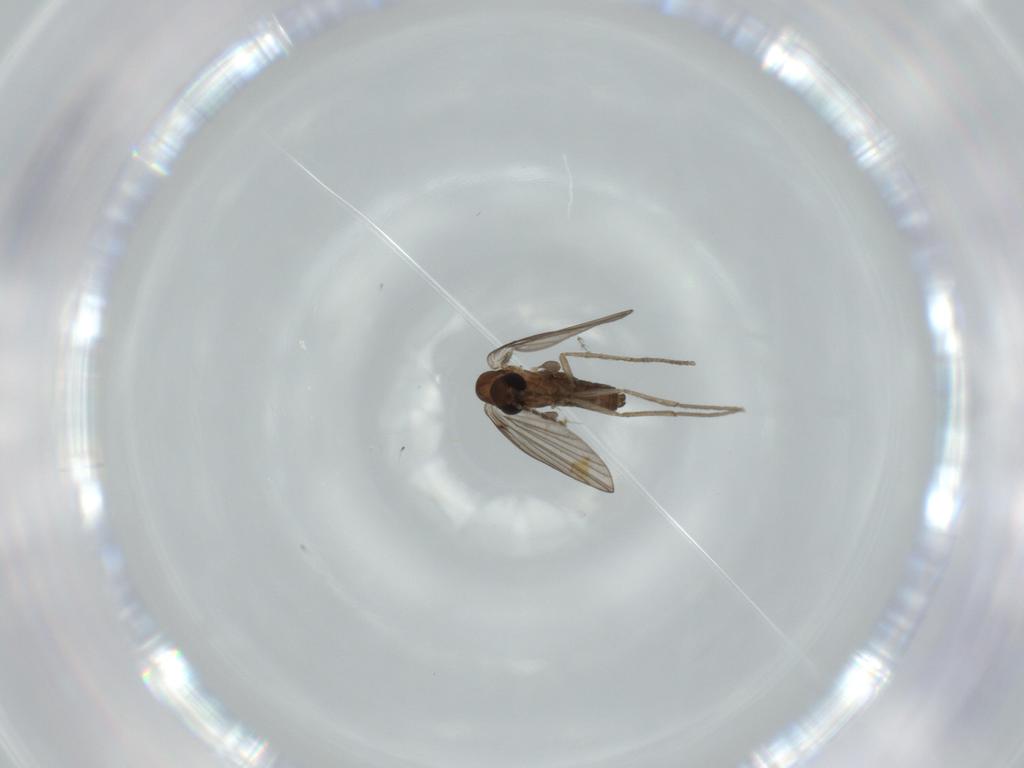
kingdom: Animalia
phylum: Arthropoda
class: Insecta
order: Diptera
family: Cecidomyiidae
